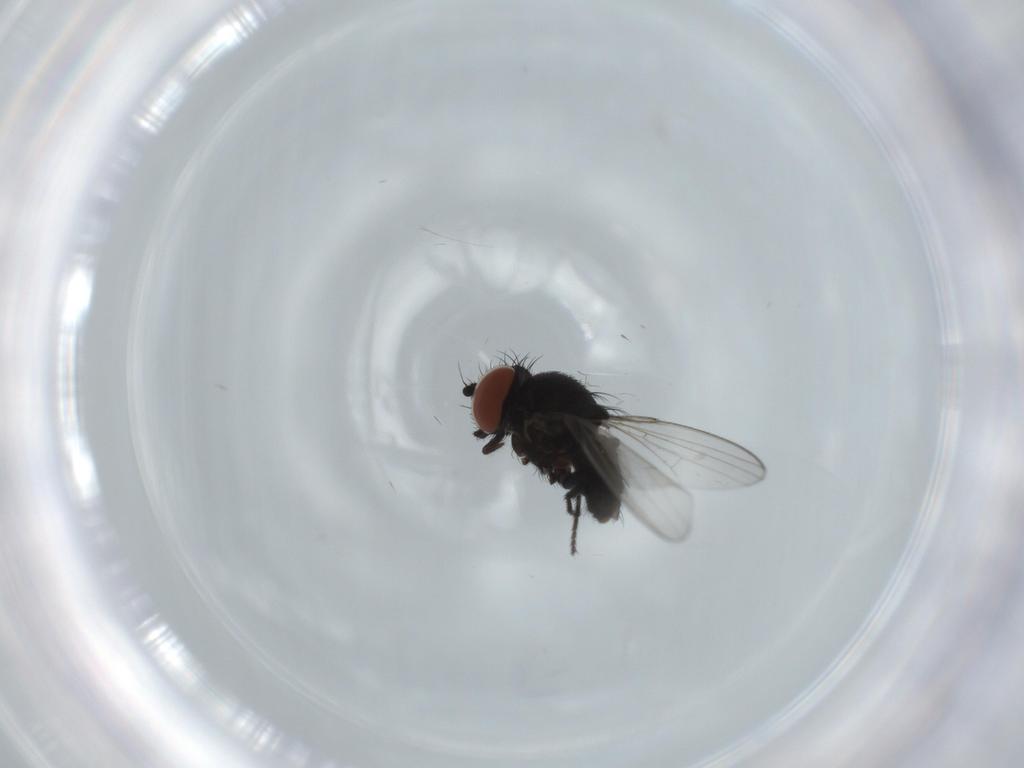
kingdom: Animalia
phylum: Arthropoda
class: Insecta
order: Diptera
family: Milichiidae
